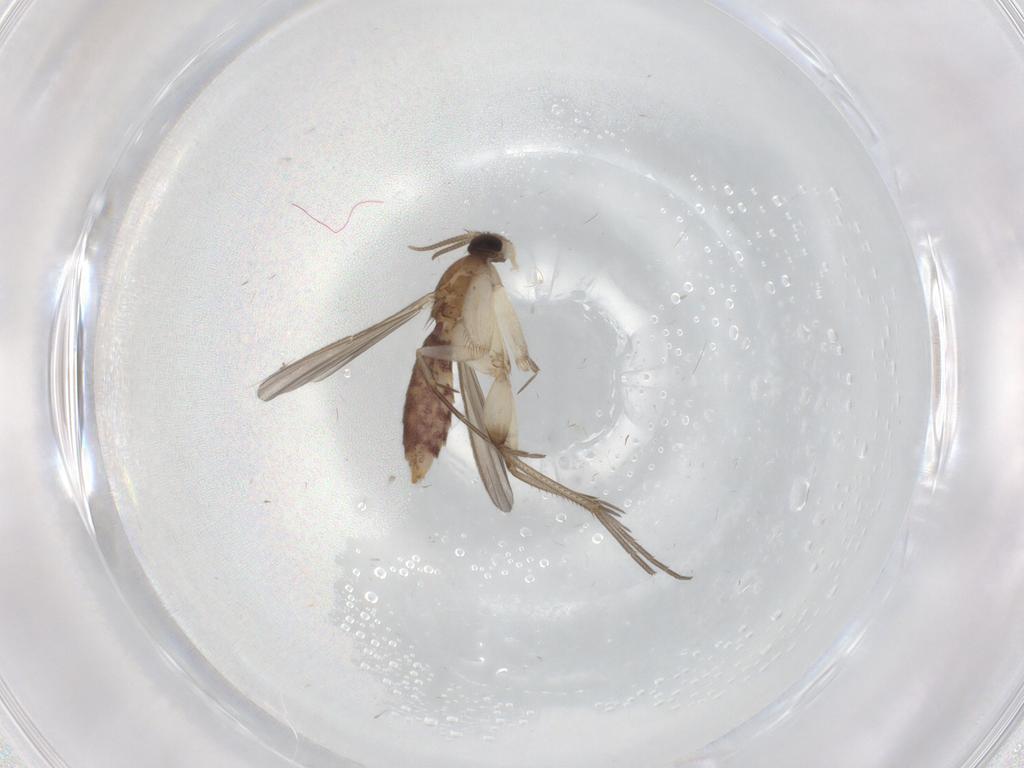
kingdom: Animalia
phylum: Arthropoda
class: Insecta
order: Diptera
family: Mycetophilidae
